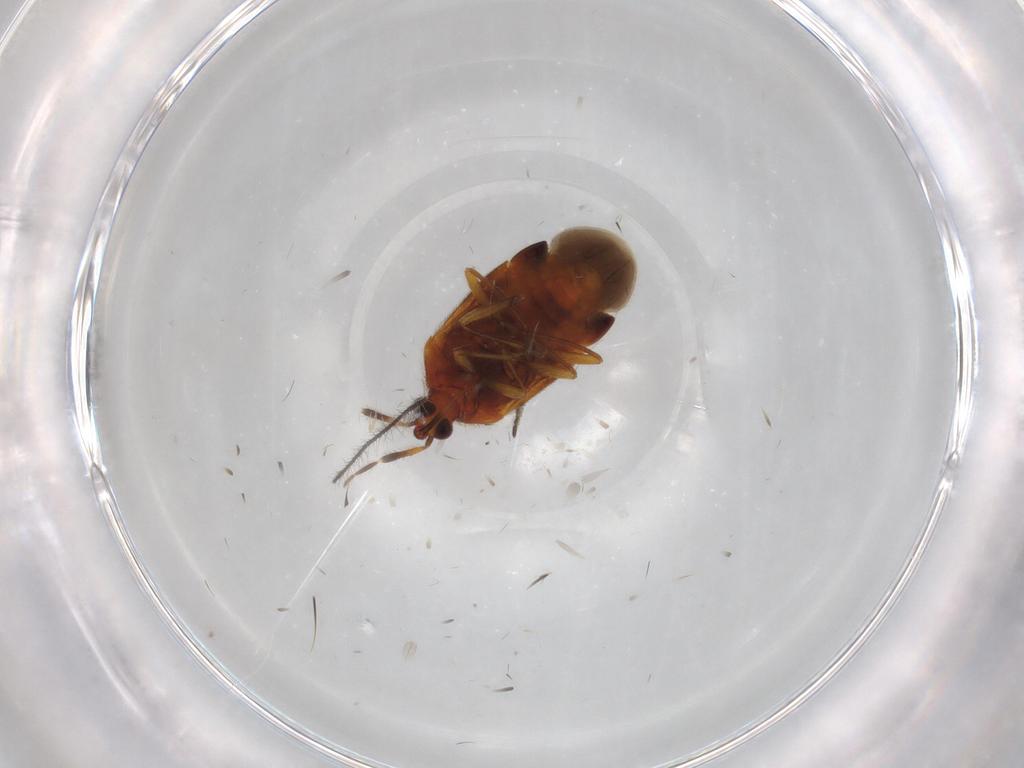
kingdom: Animalia
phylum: Arthropoda
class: Insecta
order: Hemiptera
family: Anthocoridae
